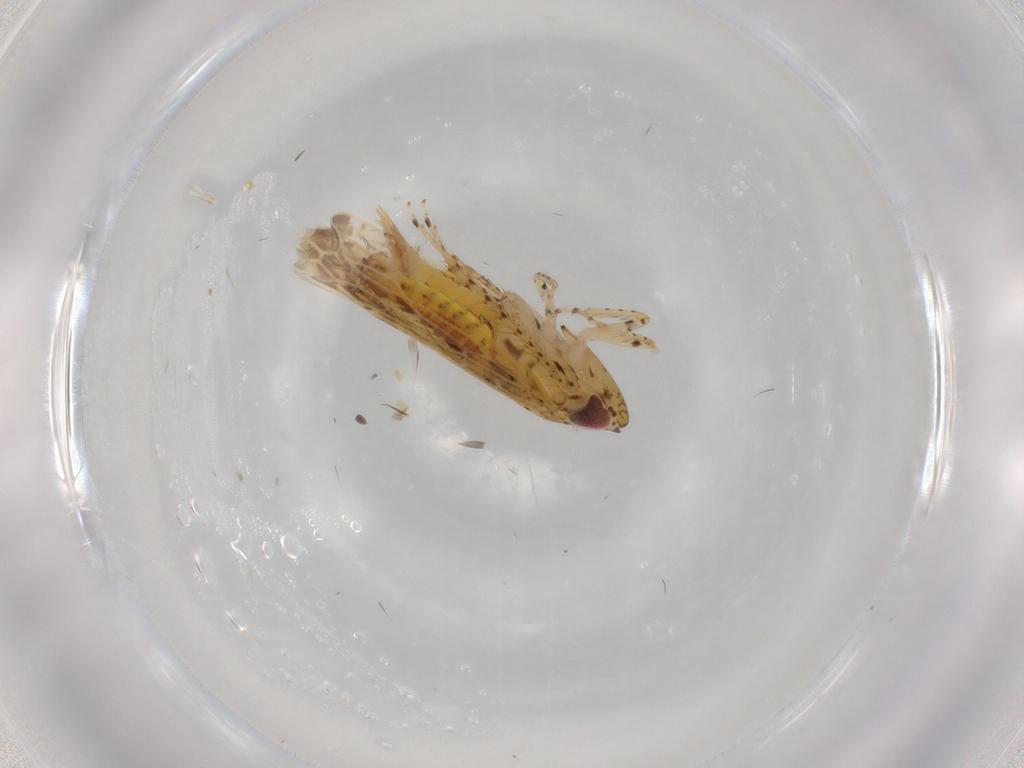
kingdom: Animalia
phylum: Arthropoda
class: Insecta
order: Hemiptera
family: Cicadellidae
